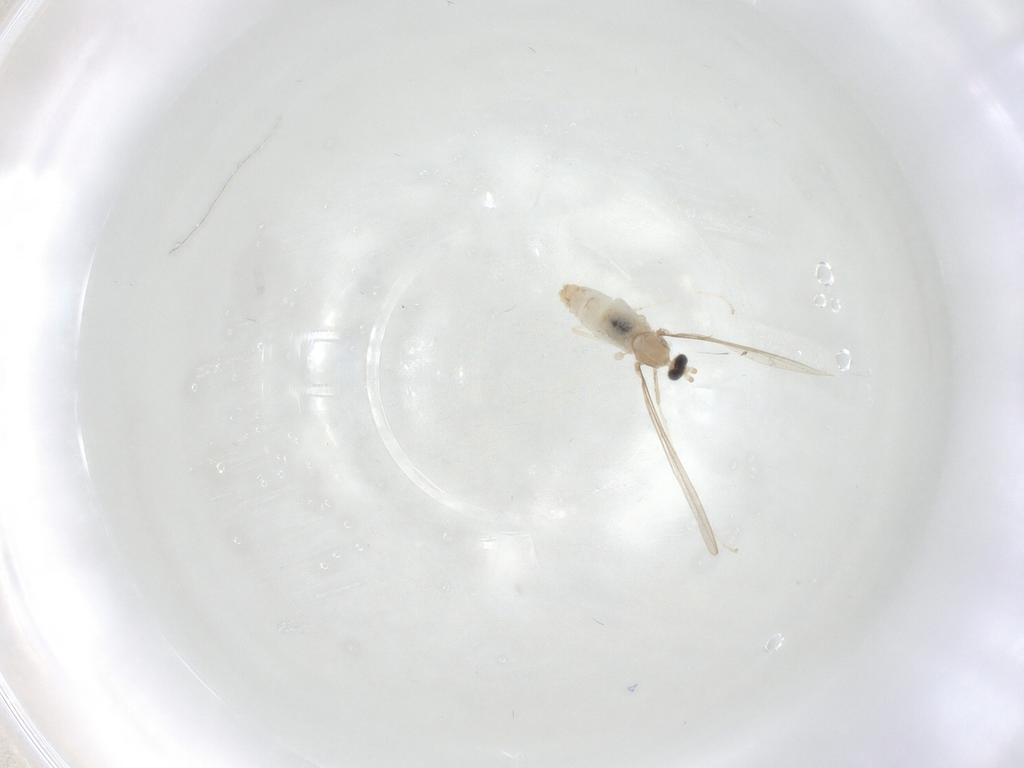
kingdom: Animalia
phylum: Arthropoda
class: Insecta
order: Diptera
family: Cecidomyiidae
